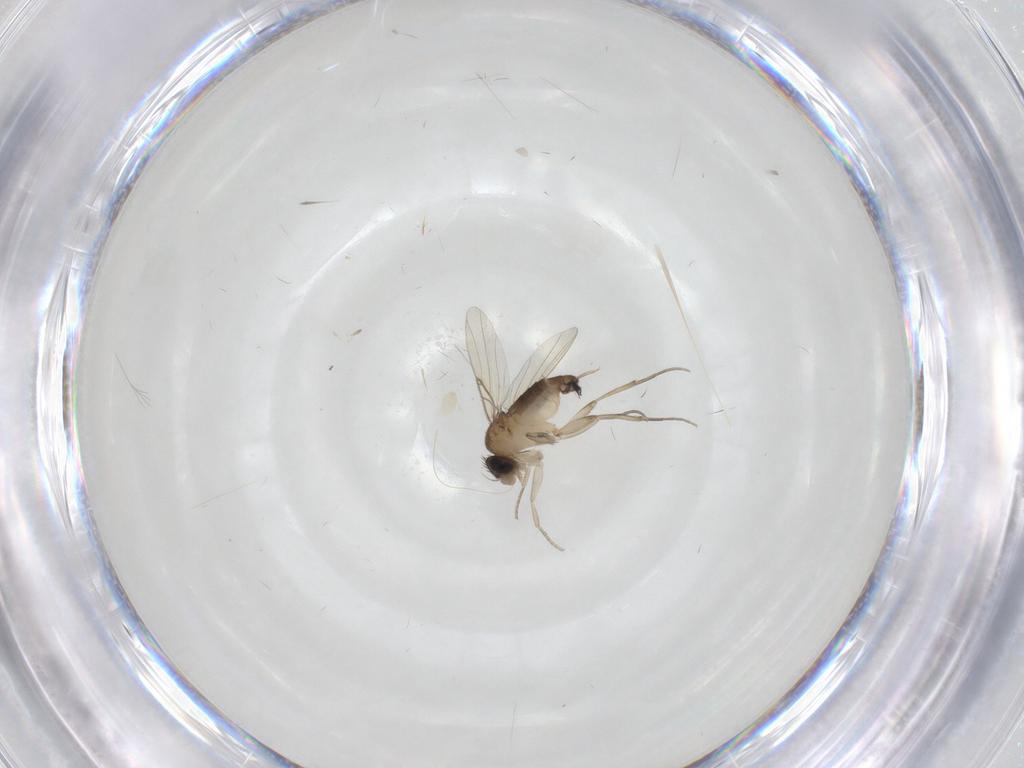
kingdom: Animalia
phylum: Arthropoda
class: Insecta
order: Diptera
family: Phoridae
